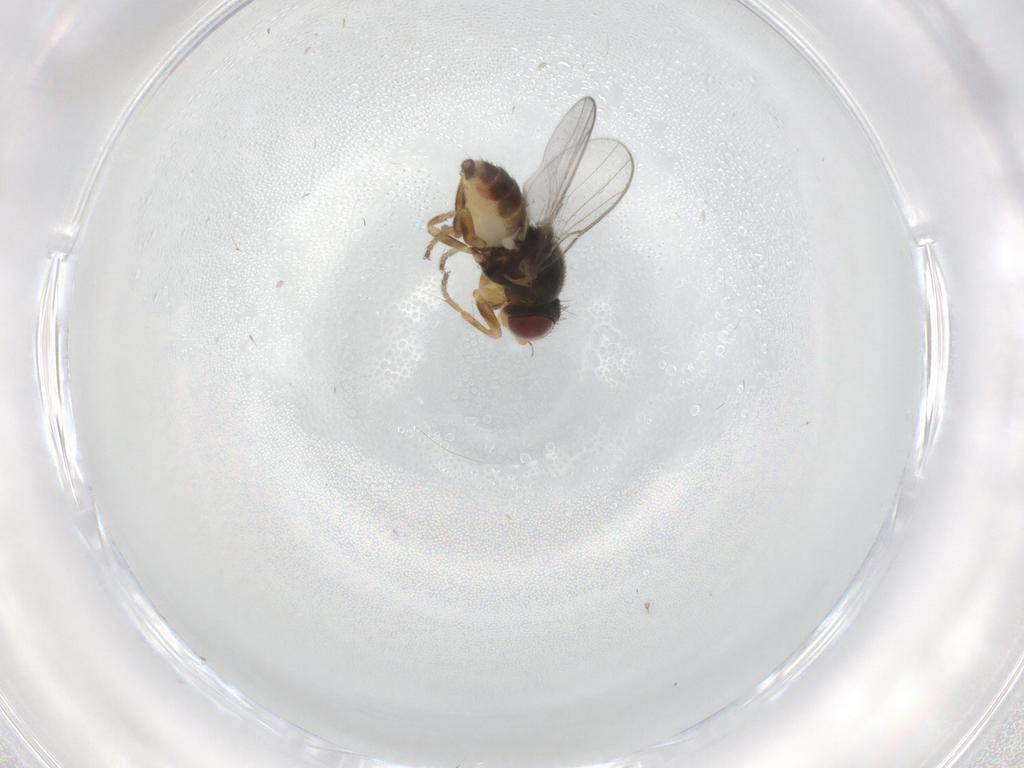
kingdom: Animalia
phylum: Arthropoda
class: Insecta
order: Diptera
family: Chloropidae
